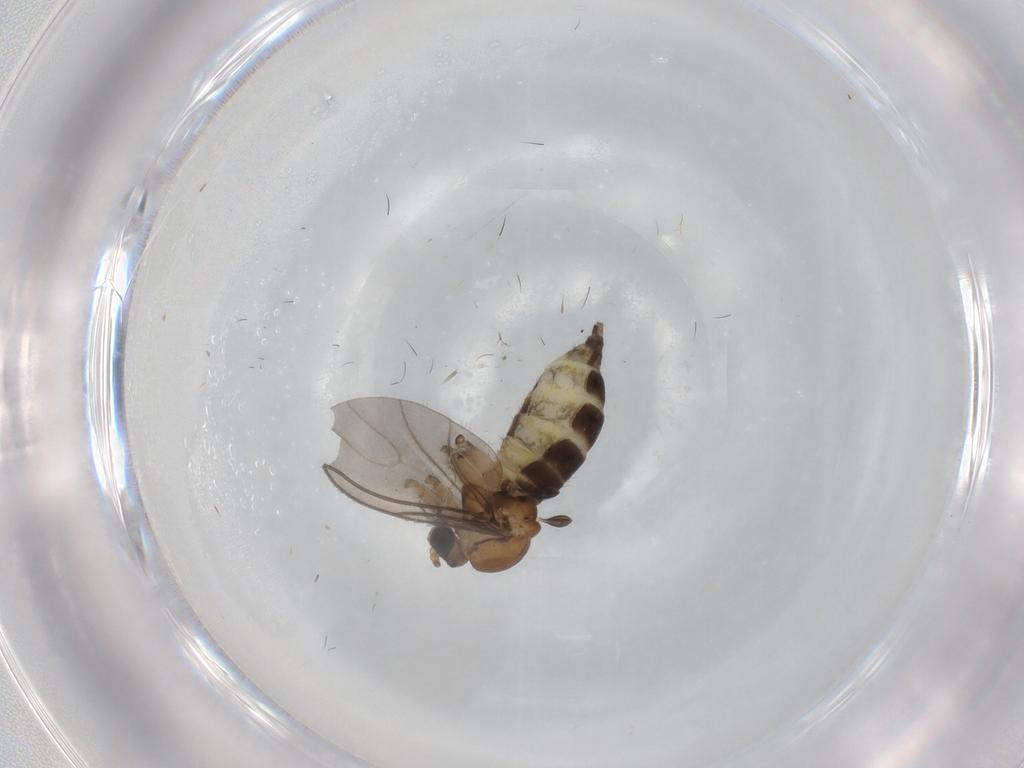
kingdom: Animalia
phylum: Arthropoda
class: Insecta
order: Diptera
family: Sciaridae
